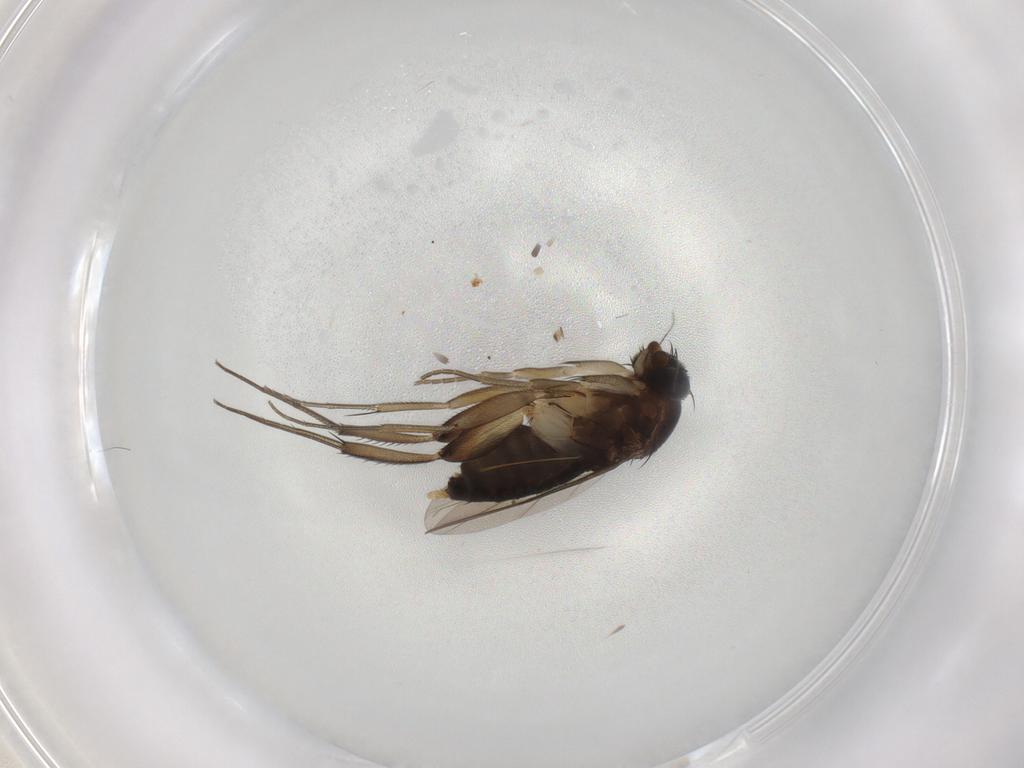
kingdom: Animalia
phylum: Arthropoda
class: Insecta
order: Diptera
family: Phoridae
